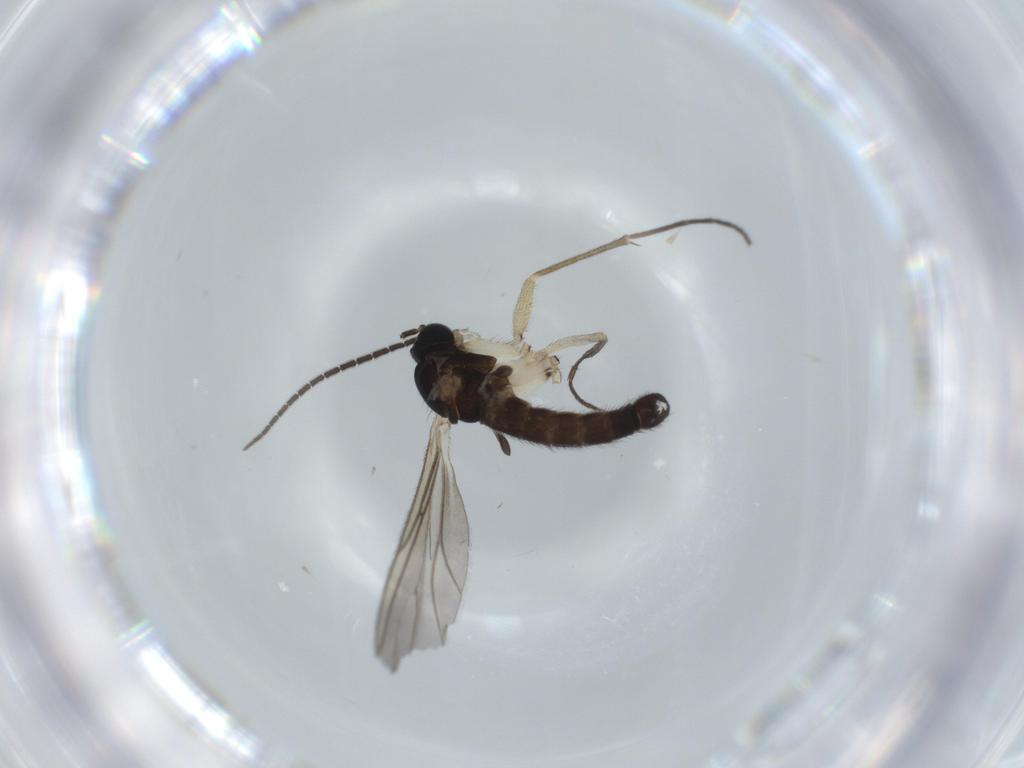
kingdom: Animalia
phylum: Arthropoda
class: Insecta
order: Diptera
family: Sciaridae
